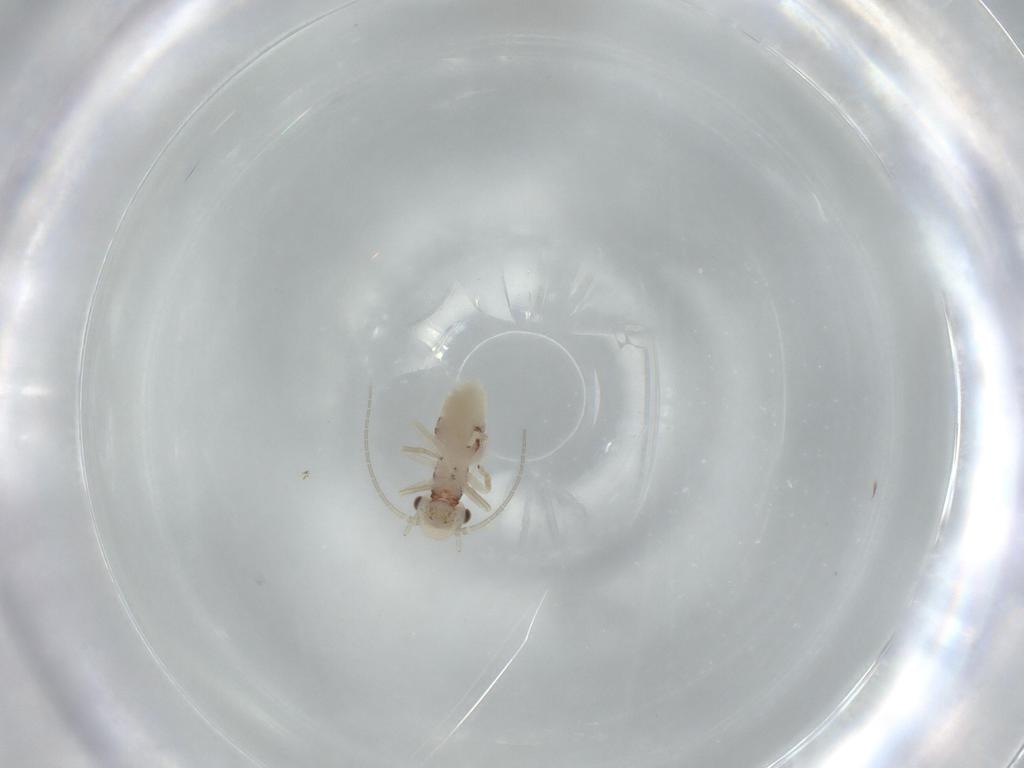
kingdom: Animalia
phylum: Arthropoda
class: Insecta
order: Psocodea
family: Caeciliusidae
